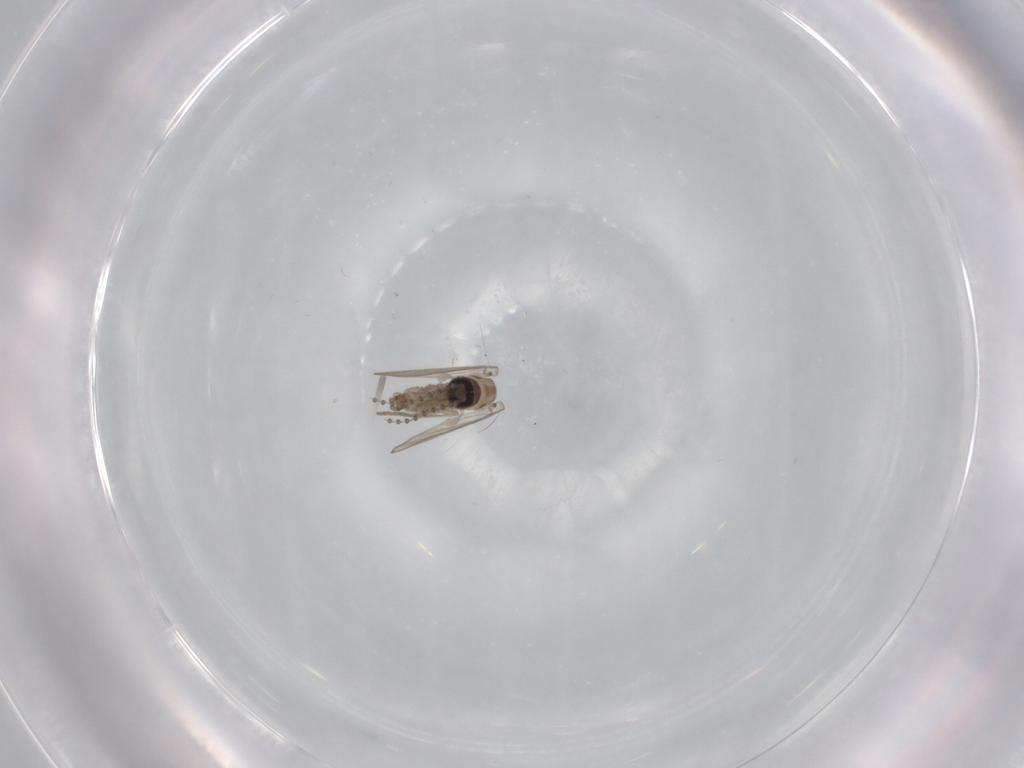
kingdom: Animalia
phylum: Arthropoda
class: Insecta
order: Diptera
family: Psychodidae
